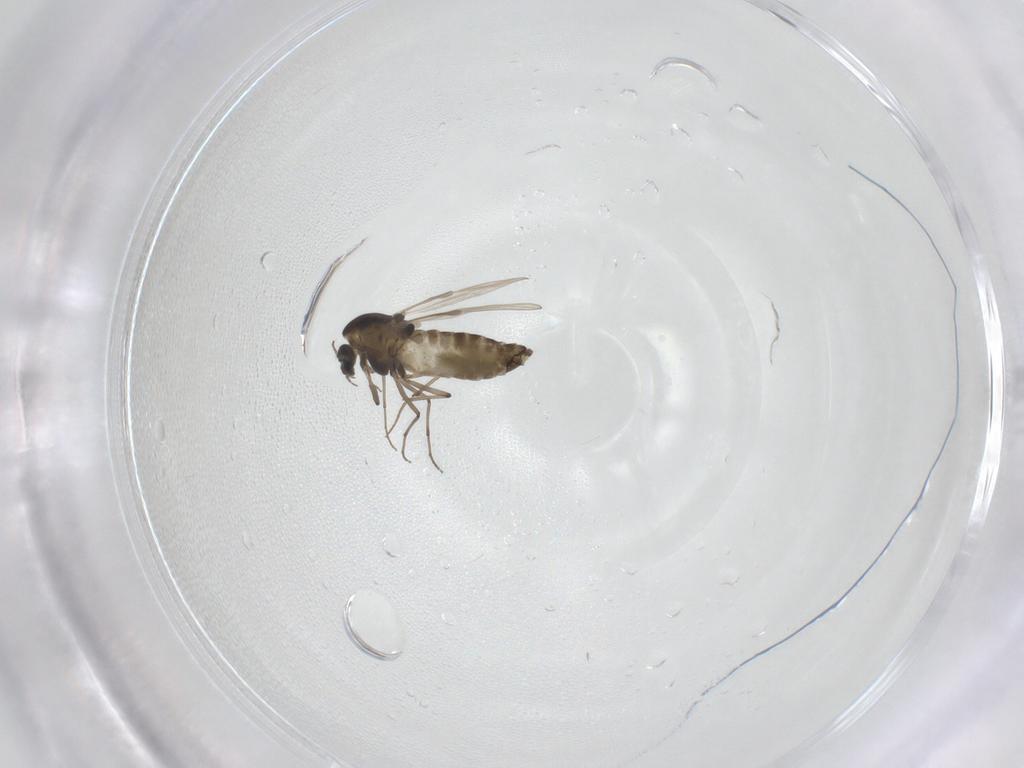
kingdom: Animalia
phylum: Arthropoda
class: Insecta
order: Diptera
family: Chironomidae
